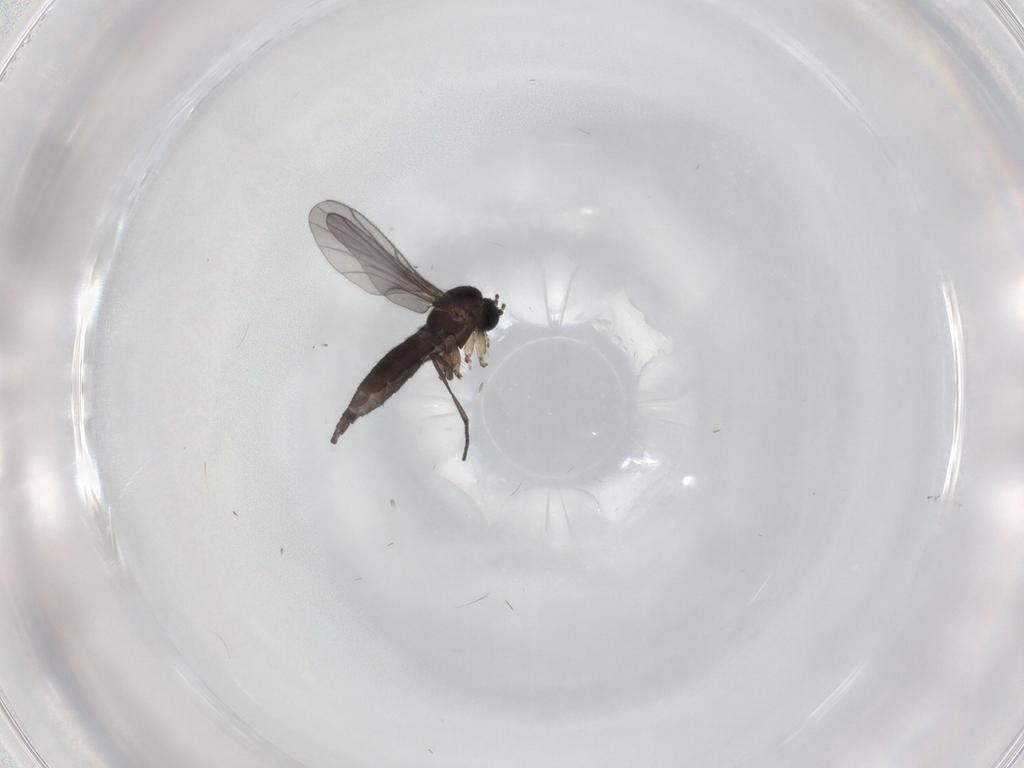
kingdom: Animalia
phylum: Arthropoda
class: Insecta
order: Diptera
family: Sciaridae
